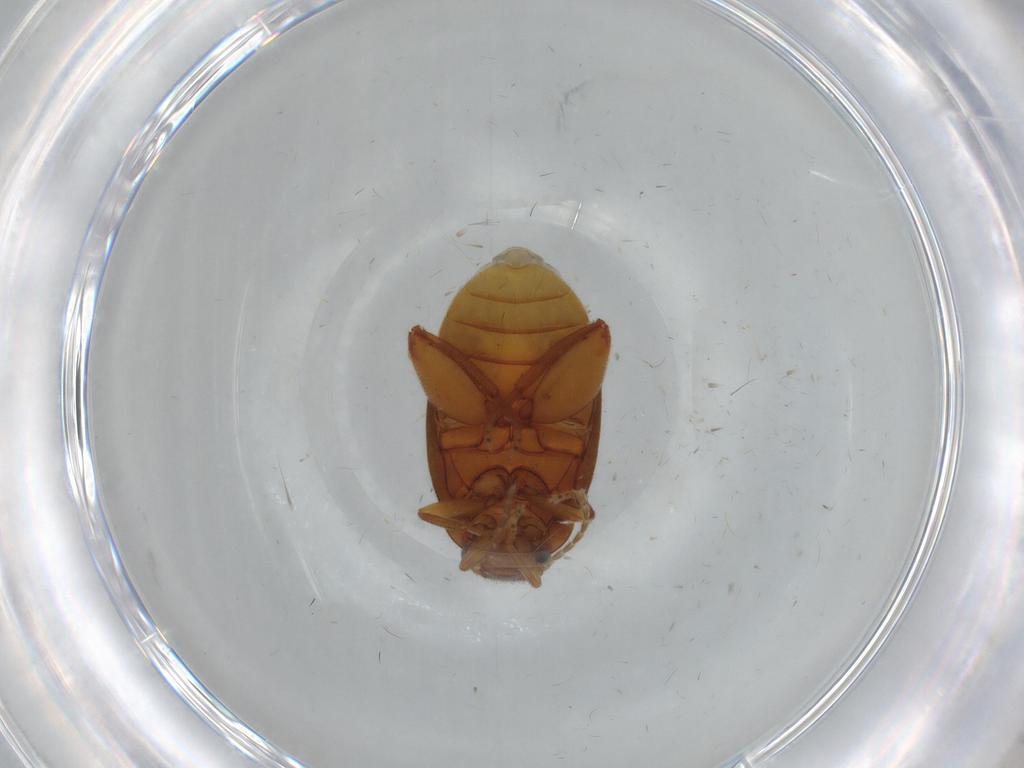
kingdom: Animalia
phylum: Arthropoda
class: Insecta
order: Coleoptera
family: Scirtidae
